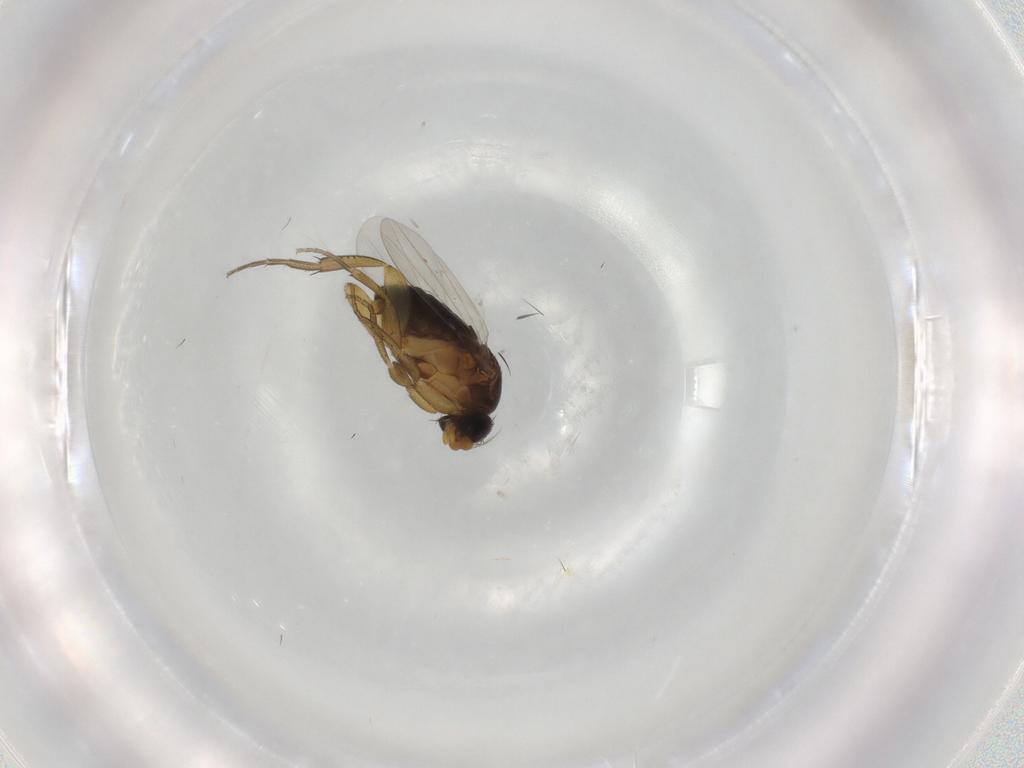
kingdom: Animalia
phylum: Arthropoda
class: Insecta
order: Diptera
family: Phoridae
